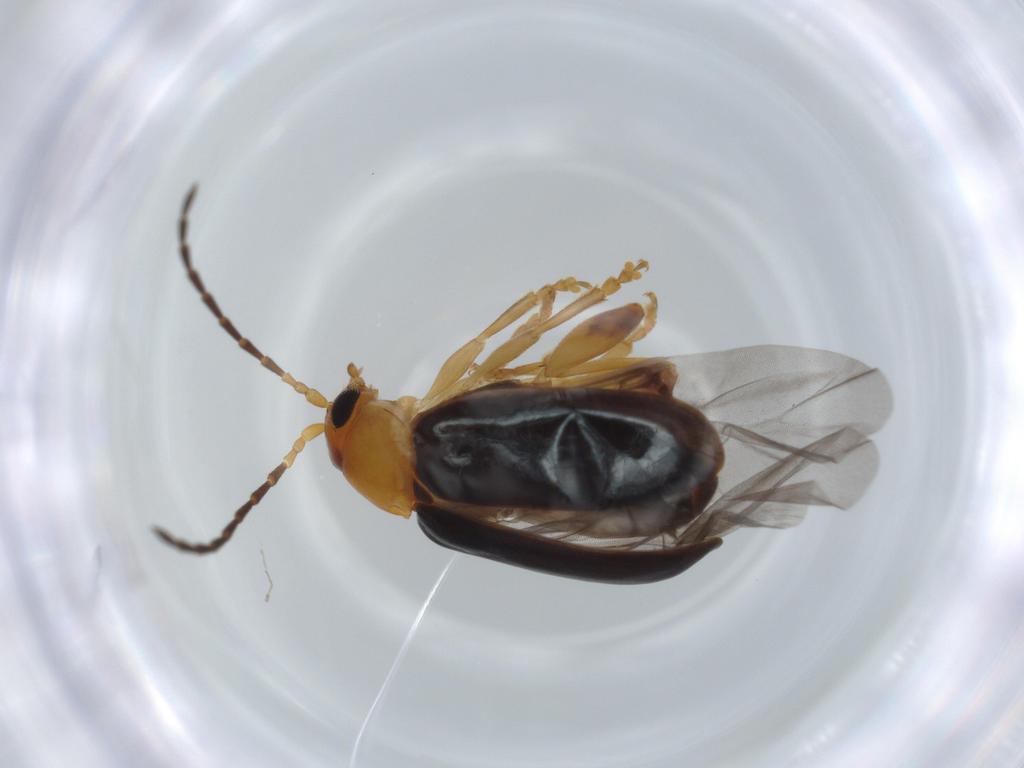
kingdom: Animalia
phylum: Arthropoda
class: Insecta
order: Coleoptera
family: Chrysomelidae
